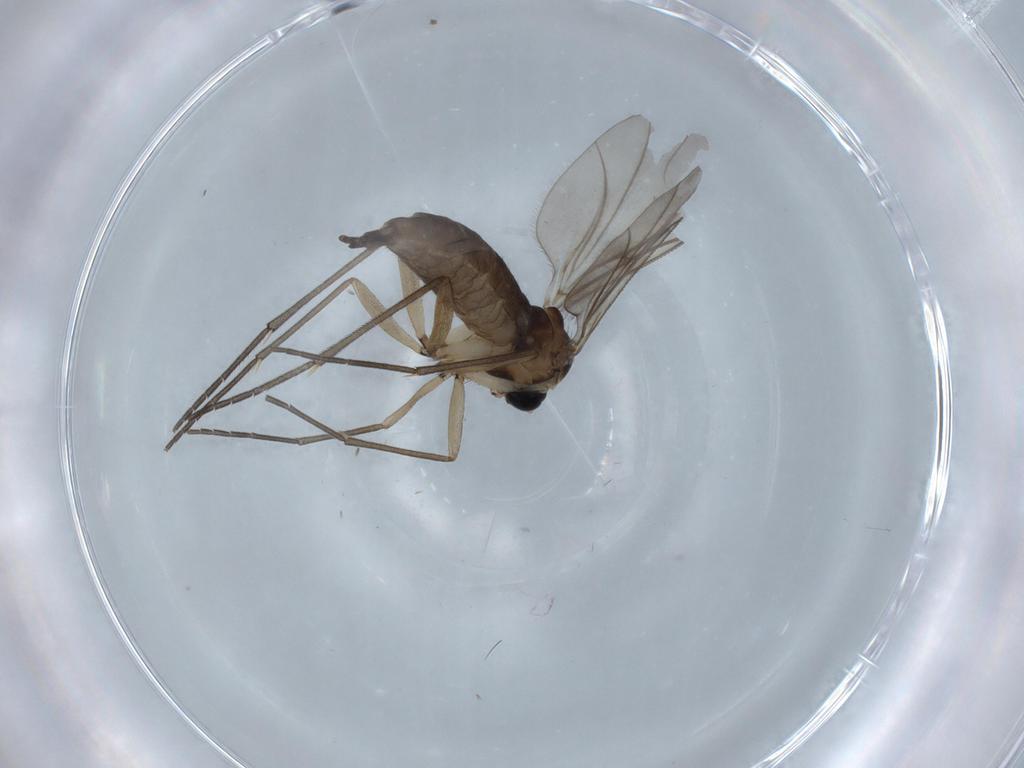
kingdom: Animalia
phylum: Arthropoda
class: Insecta
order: Diptera
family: Sciaridae
